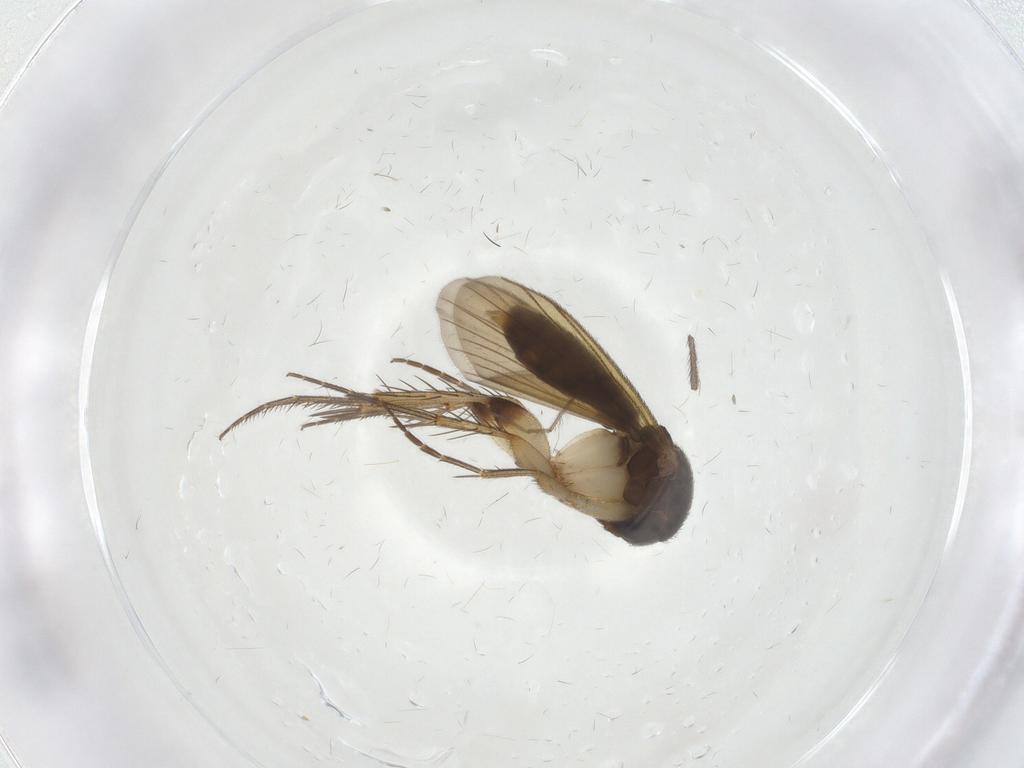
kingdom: Animalia
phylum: Arthropoda
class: Insecta
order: Diptera
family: Mycetophilidae
